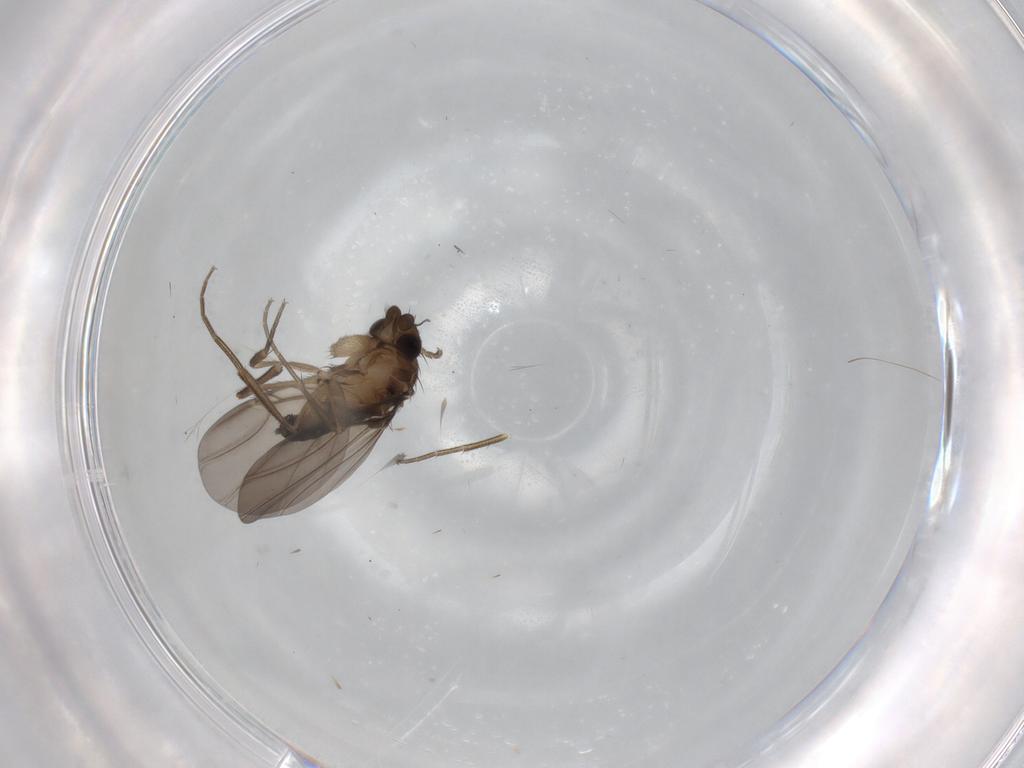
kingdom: Animalia
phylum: Arthropoda
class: Insecta
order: Diptera
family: Phoridae
